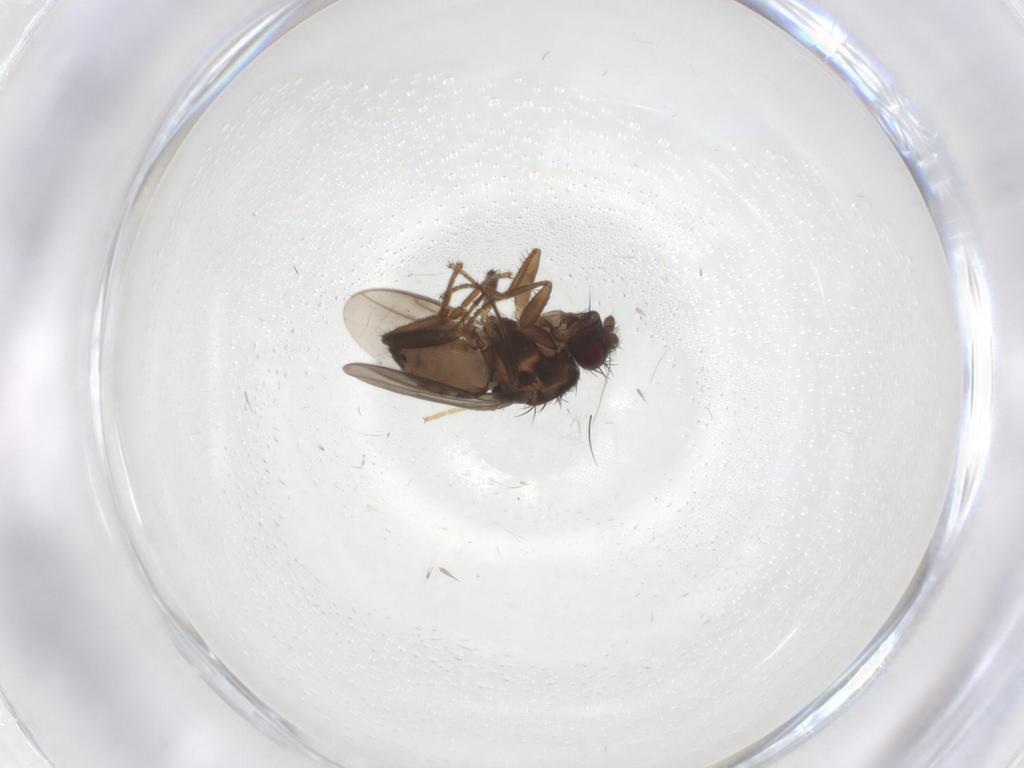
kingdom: Animalia
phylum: Arthropoda
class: Insecta
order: Diptera
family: Sphaeroceridae
